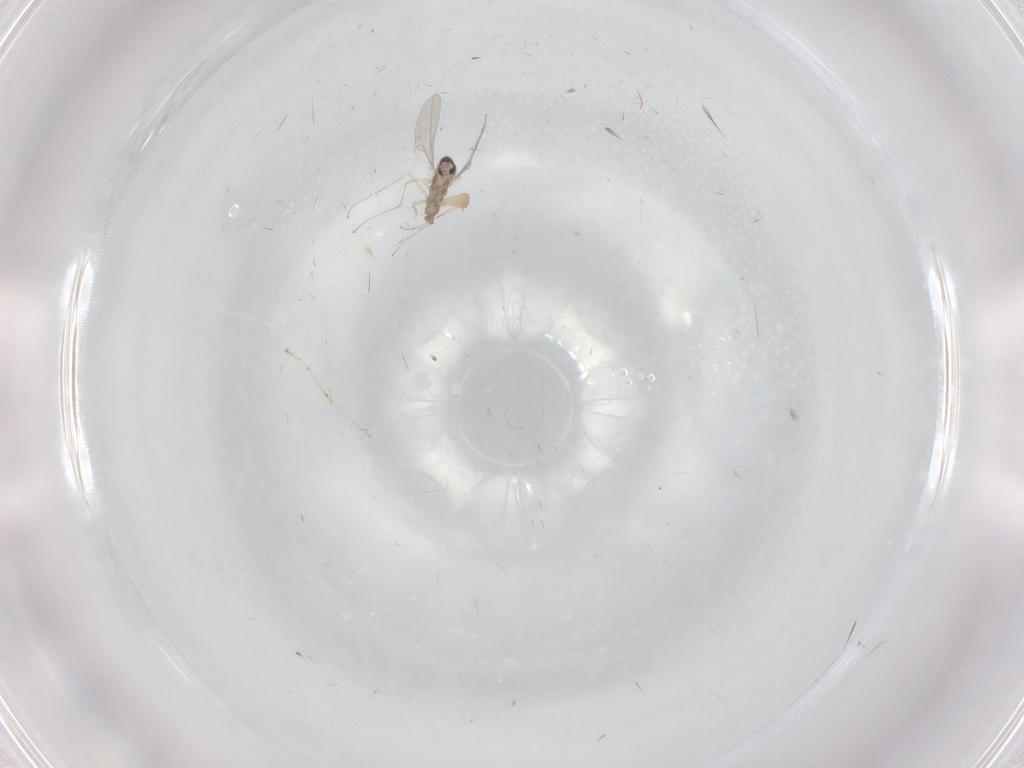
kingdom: Animalia
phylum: Arthropoda
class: Insecta
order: Diptera
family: Cecidomyiidae
